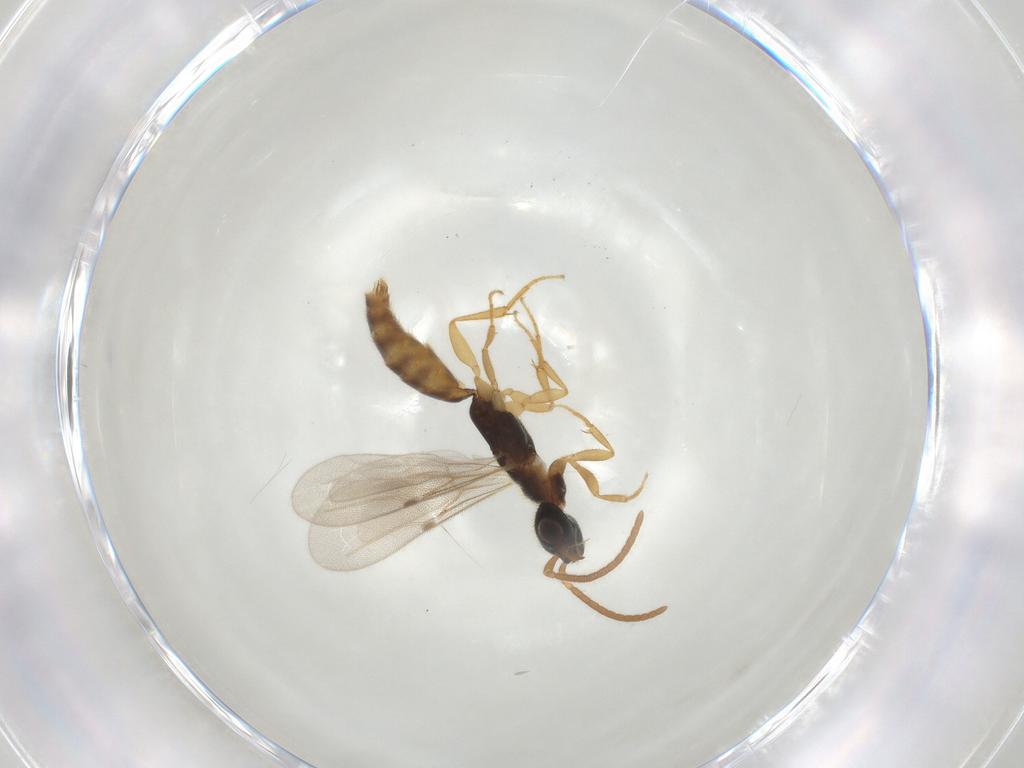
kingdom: Animalia
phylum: Arthropoda
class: Insecta
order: Hymenoptera
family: Bethylidae
